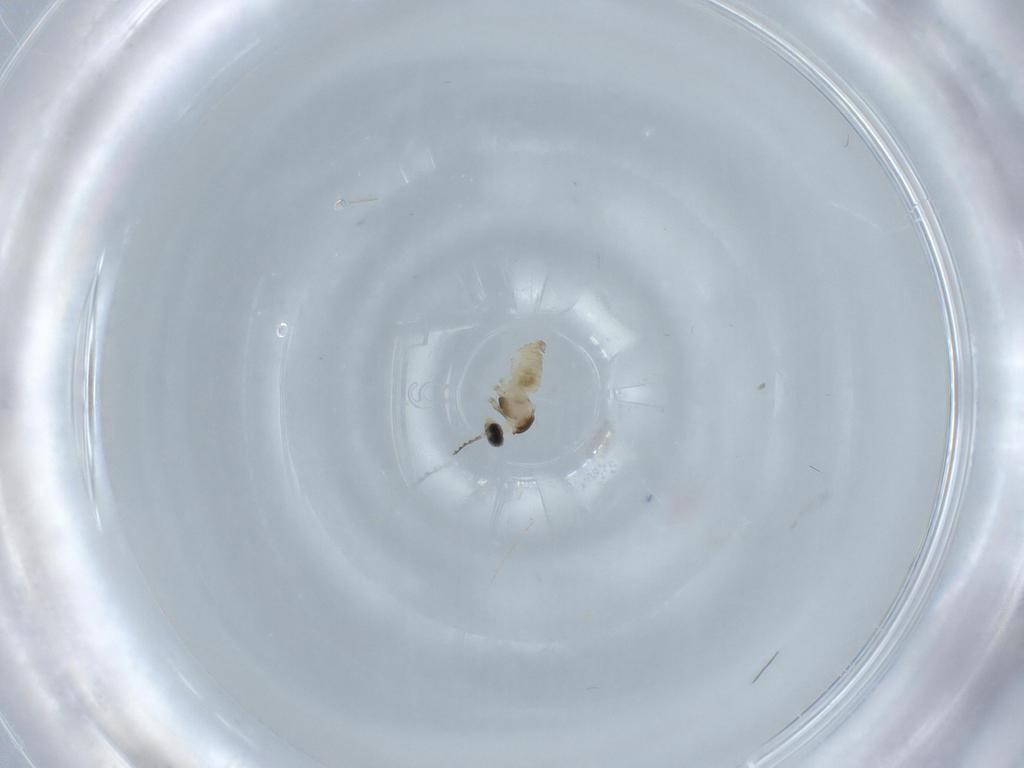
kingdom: Animalia
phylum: Arthropoda
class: Insecta
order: Diptera
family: Cecidomyiidae
